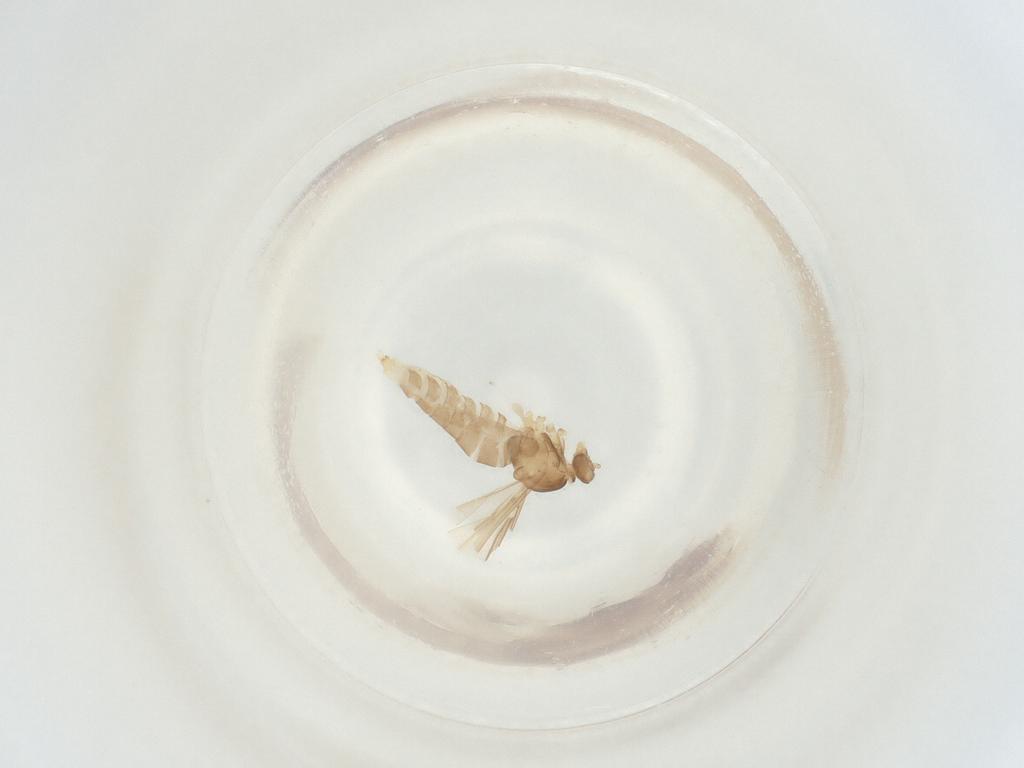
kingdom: Animalia
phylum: Arthropoda
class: Insecta
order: Diptera
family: Cecidomyiidae
